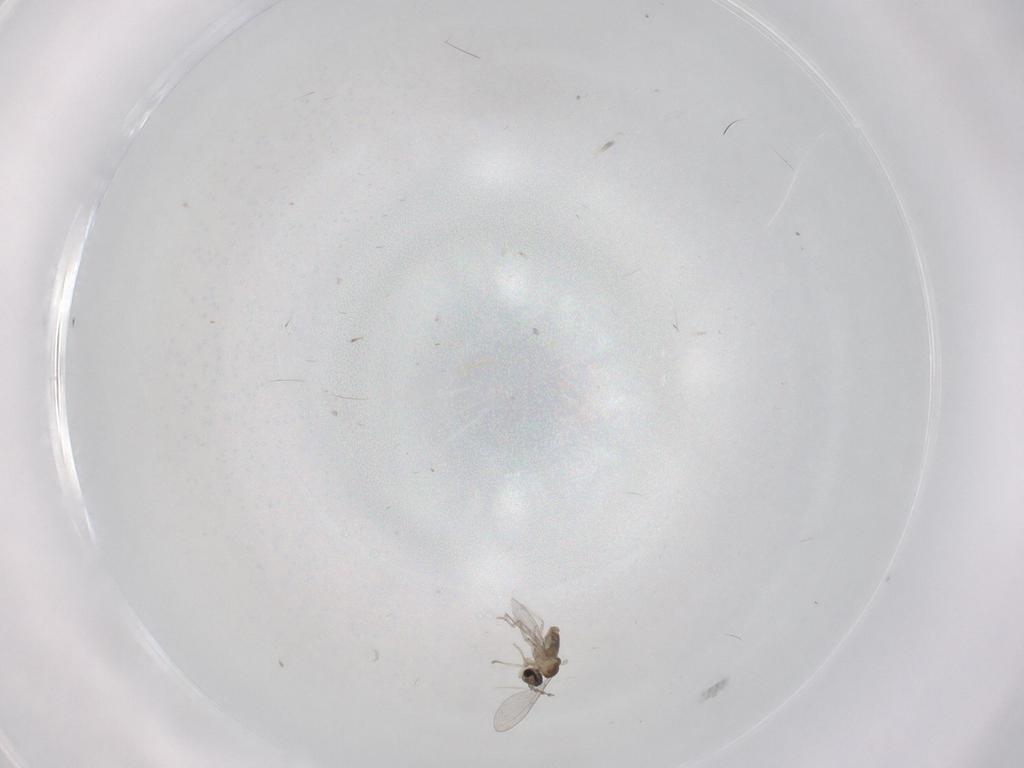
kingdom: Animalia
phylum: Arthropoda
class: Insecta
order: Diptera
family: Cecidomyiidae
